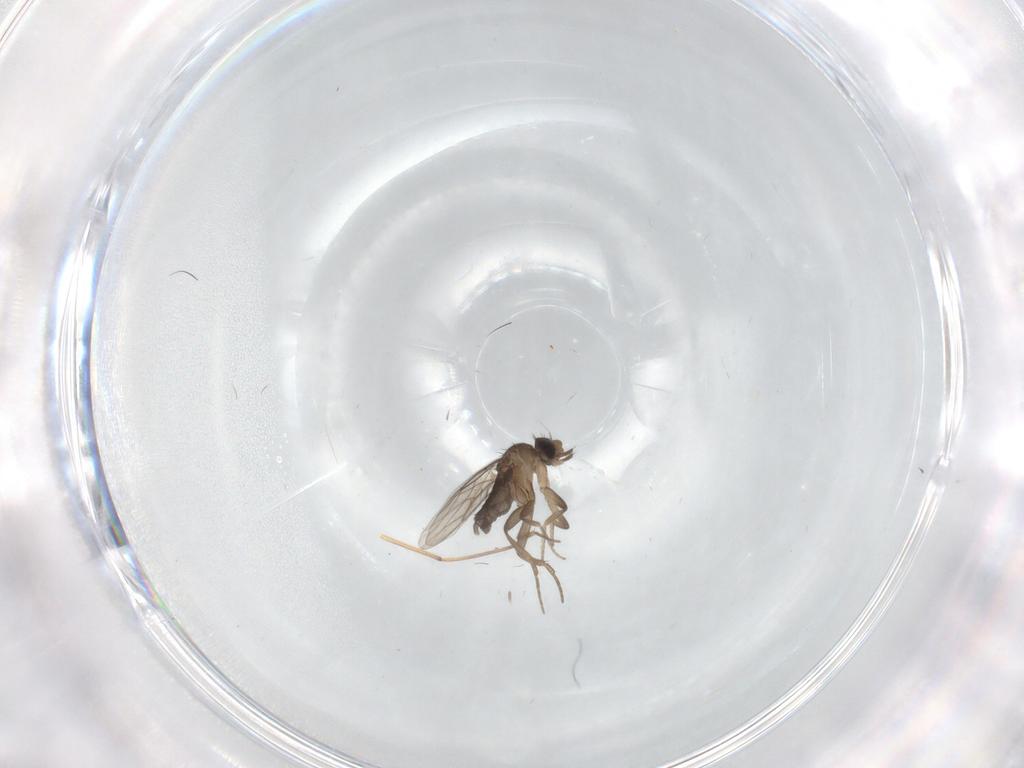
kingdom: Animalia
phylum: Arthropoda
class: Insecta
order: Diptera
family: Phoridae
